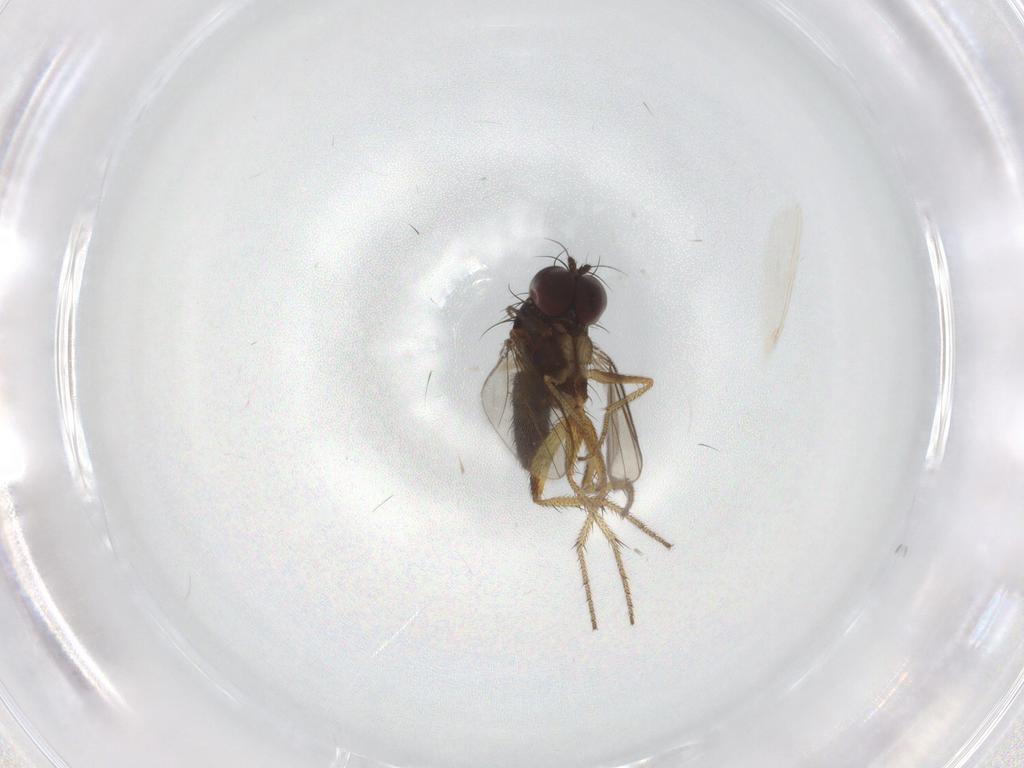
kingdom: Animalia
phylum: Arthropoda
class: Insecta
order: Diptera
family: Chironomidae
